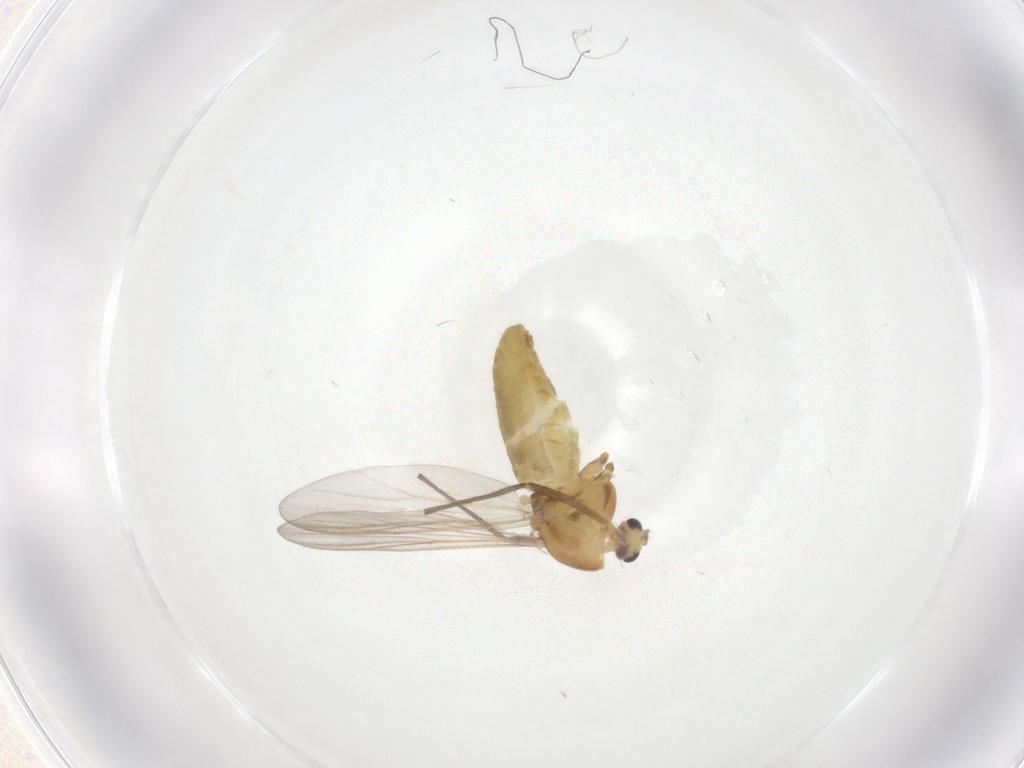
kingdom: Animalia
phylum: Arthropoda
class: Insecta
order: Diptera
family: Chironomidae
